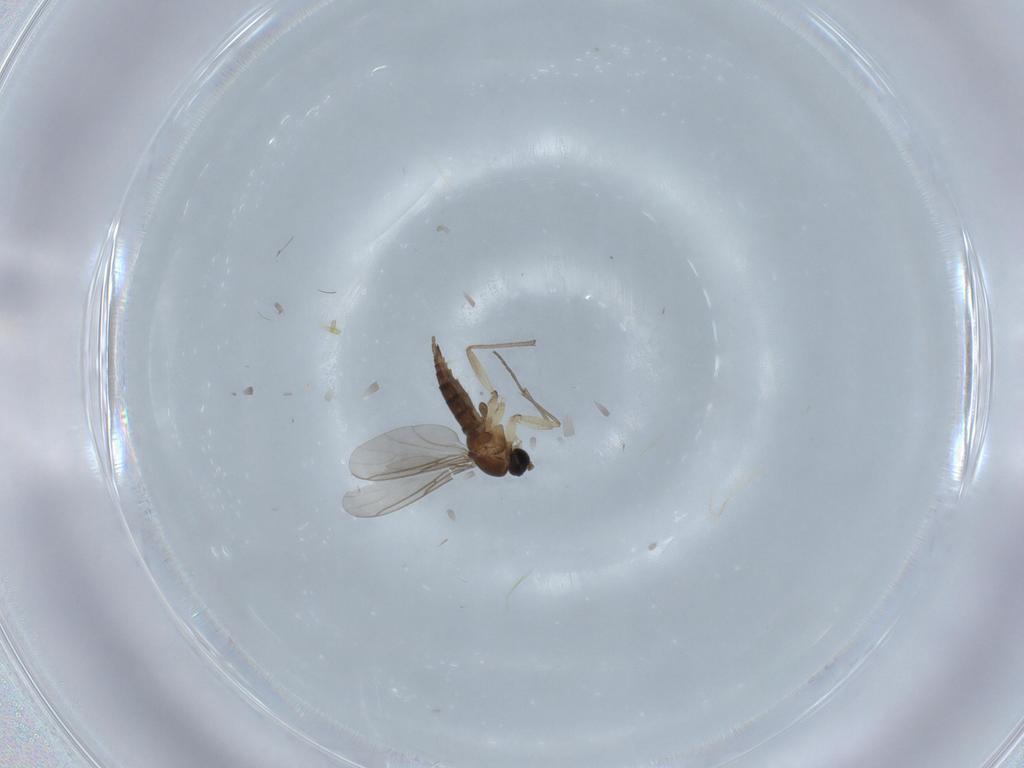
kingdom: Animalia
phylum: Arthropoda
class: Insecta
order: Diptera
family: Sciaridae
